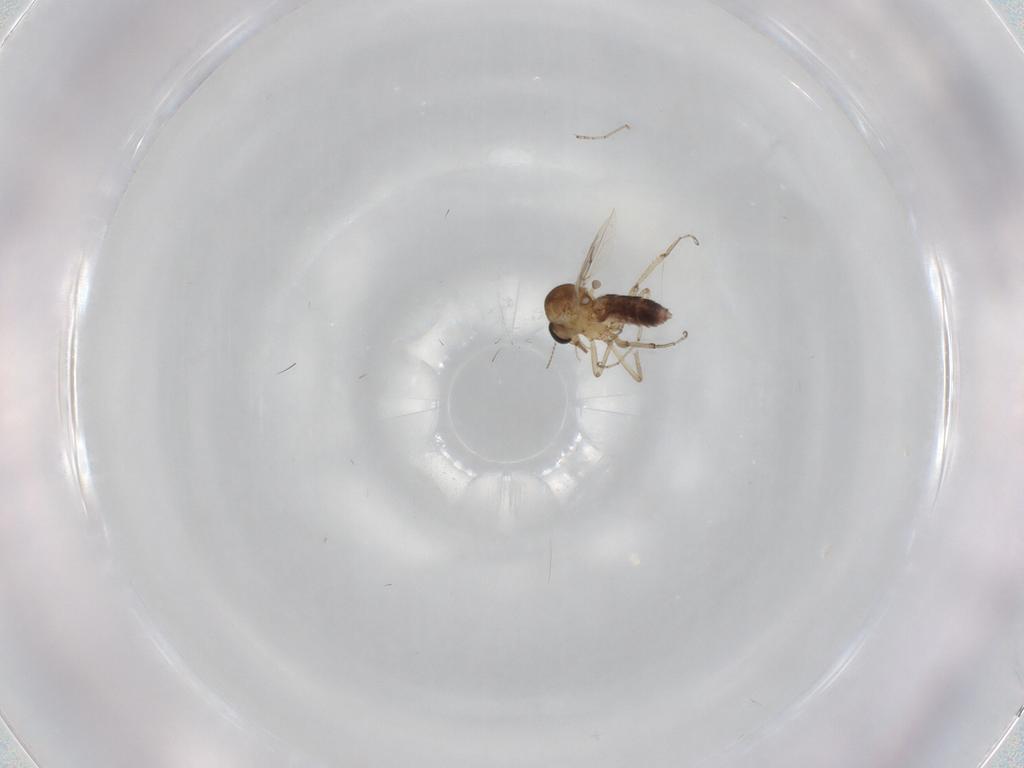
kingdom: Animalia
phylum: Arthropoda
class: Insecta
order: Diptera
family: Ceratopogonidae
